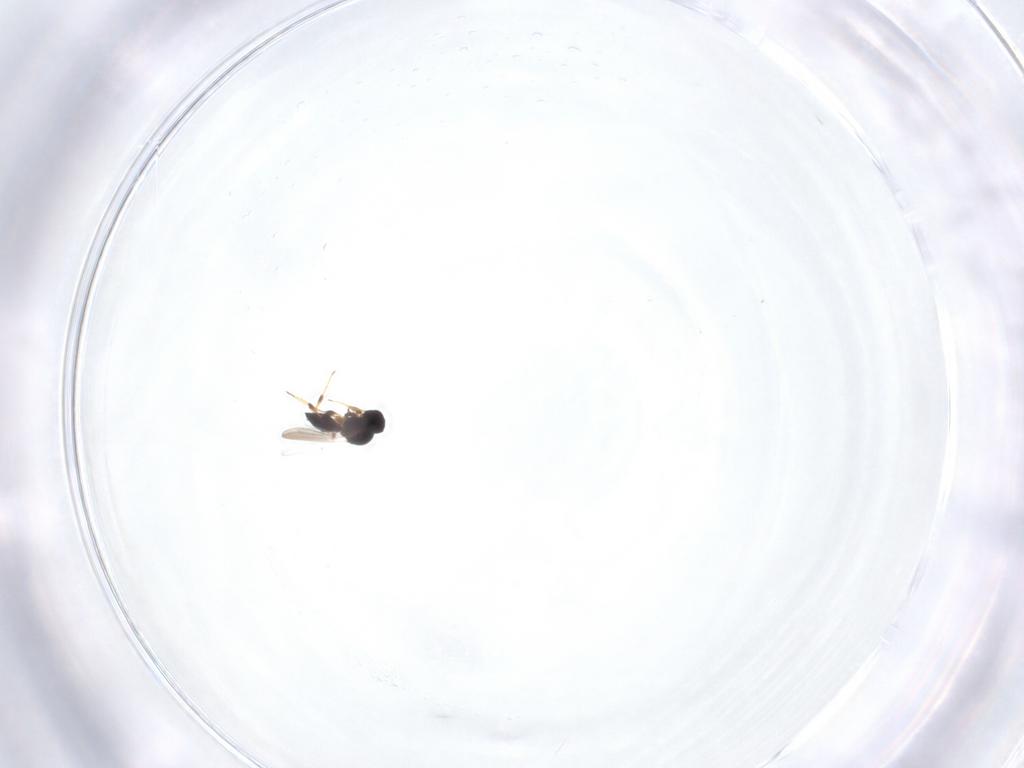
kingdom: Animalia
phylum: Arthropoda
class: Insecta
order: Hymenoptera
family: Platygastridae
